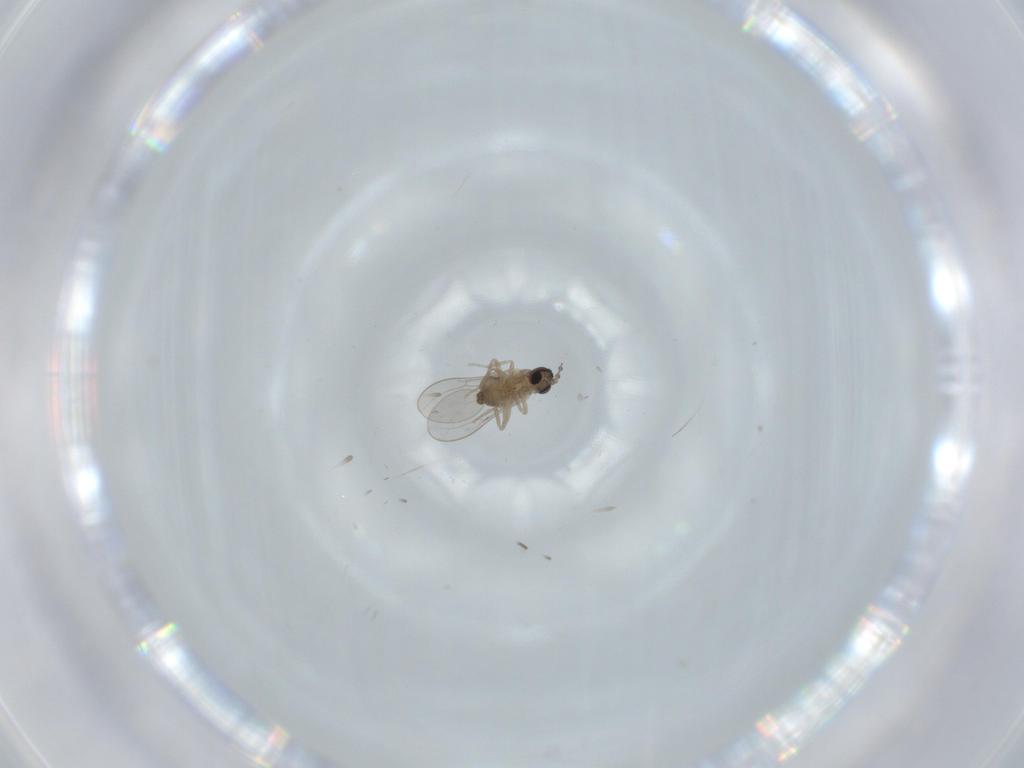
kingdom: Animalia
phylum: Arthropoda
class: Insecta
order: Diptera
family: Cecidomyiidae
